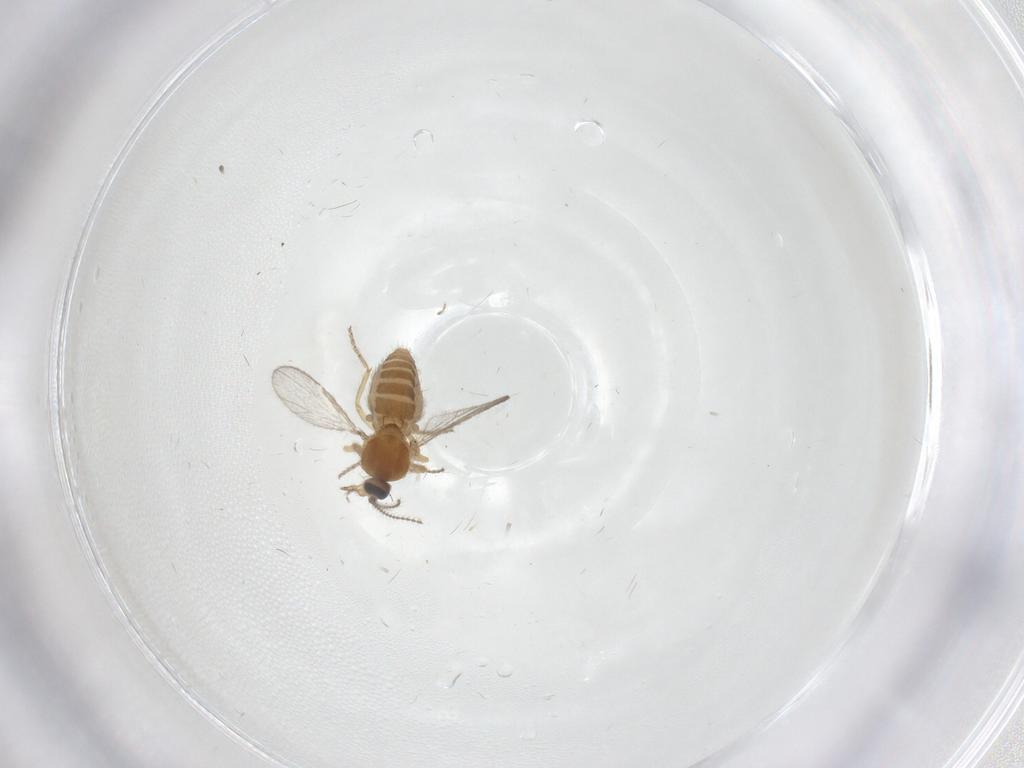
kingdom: Animalia
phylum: Arthropoda
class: Insecta
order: Diptera
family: Ceratopogonidae
